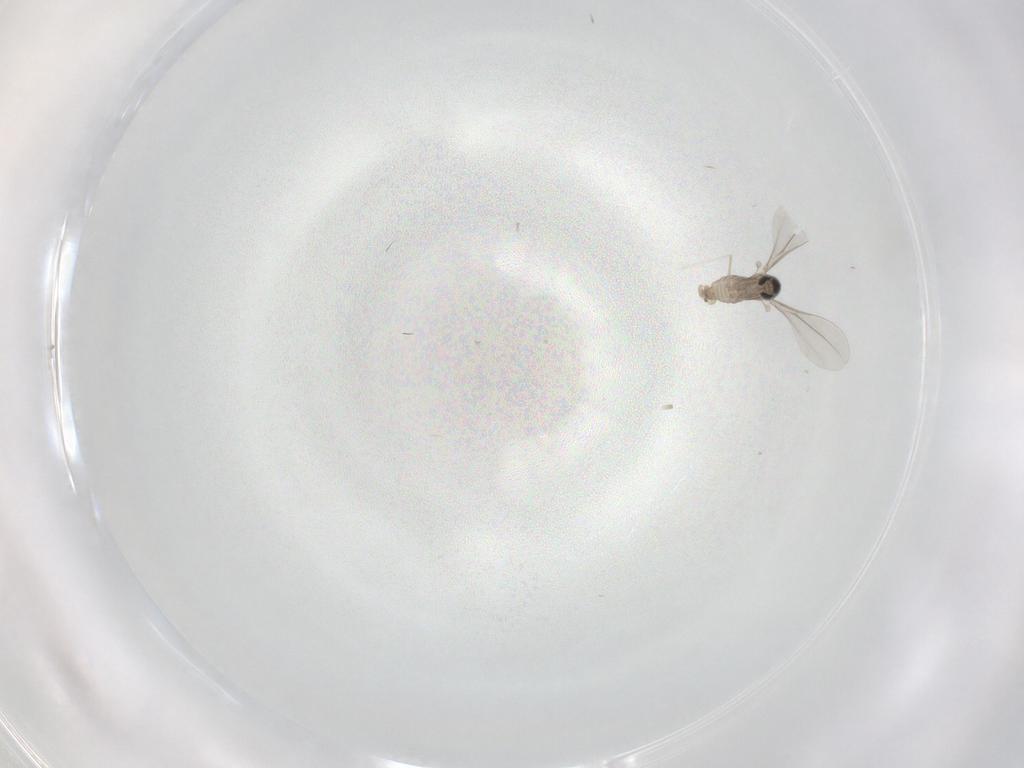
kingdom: Animalia
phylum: Arthropoda
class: Insecta
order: Diptera
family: Cecidomyiidae
